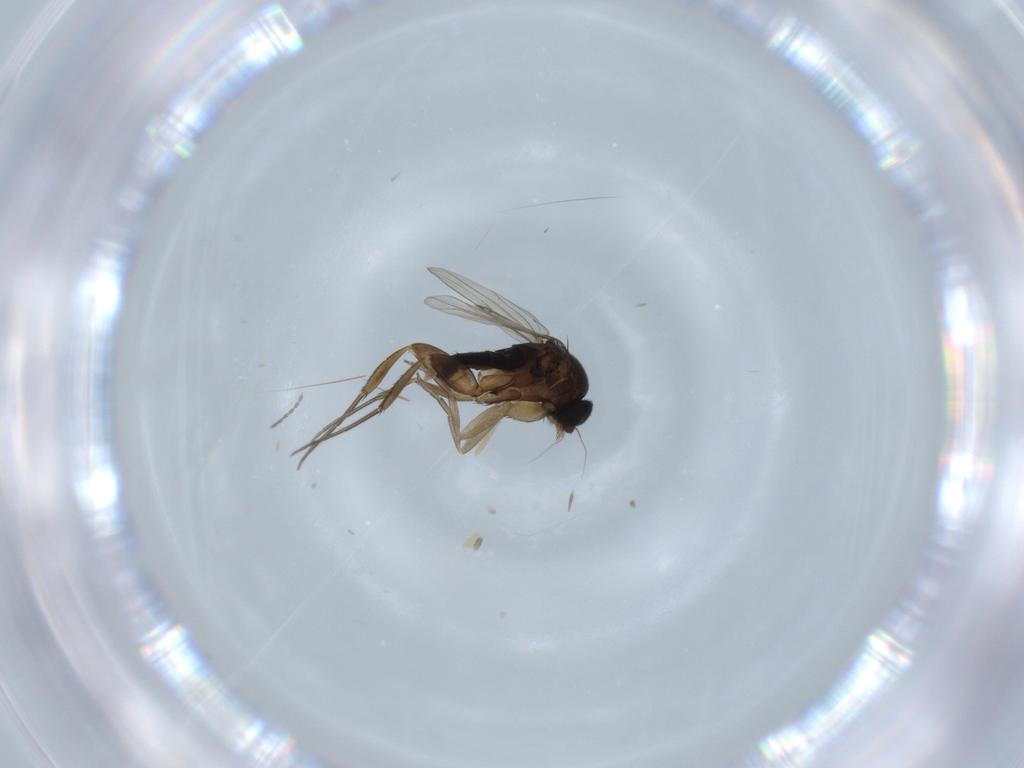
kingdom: Animalia
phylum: Arthropoda
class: Insecta
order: Diptera
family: Phoridae
